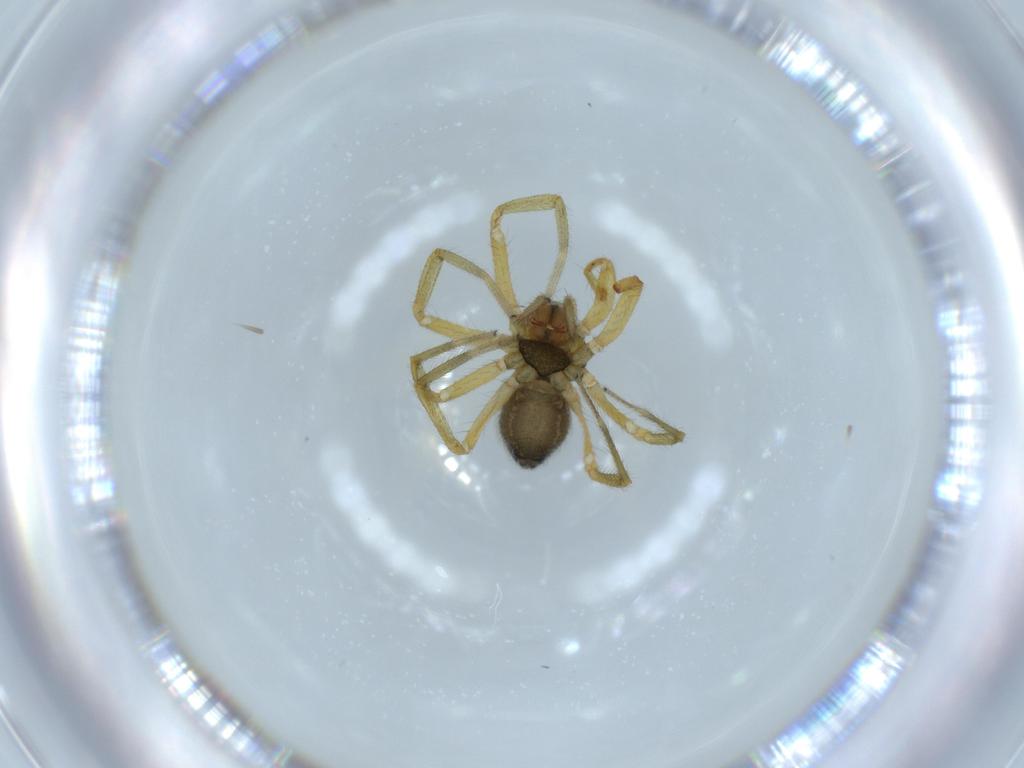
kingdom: Animalia
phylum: Arthropoda
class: Arachnida
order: Araneae
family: Linyphiidae
